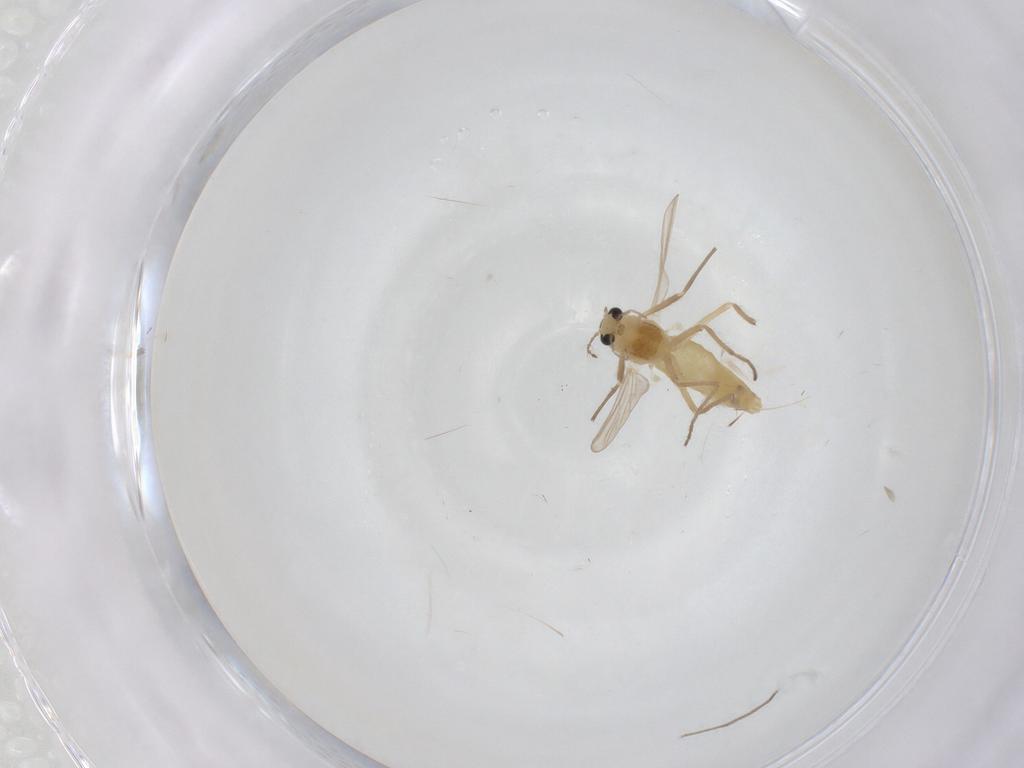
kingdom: Animalia
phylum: Arthropoda
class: Insecta
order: Diptera
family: Chironomidae
